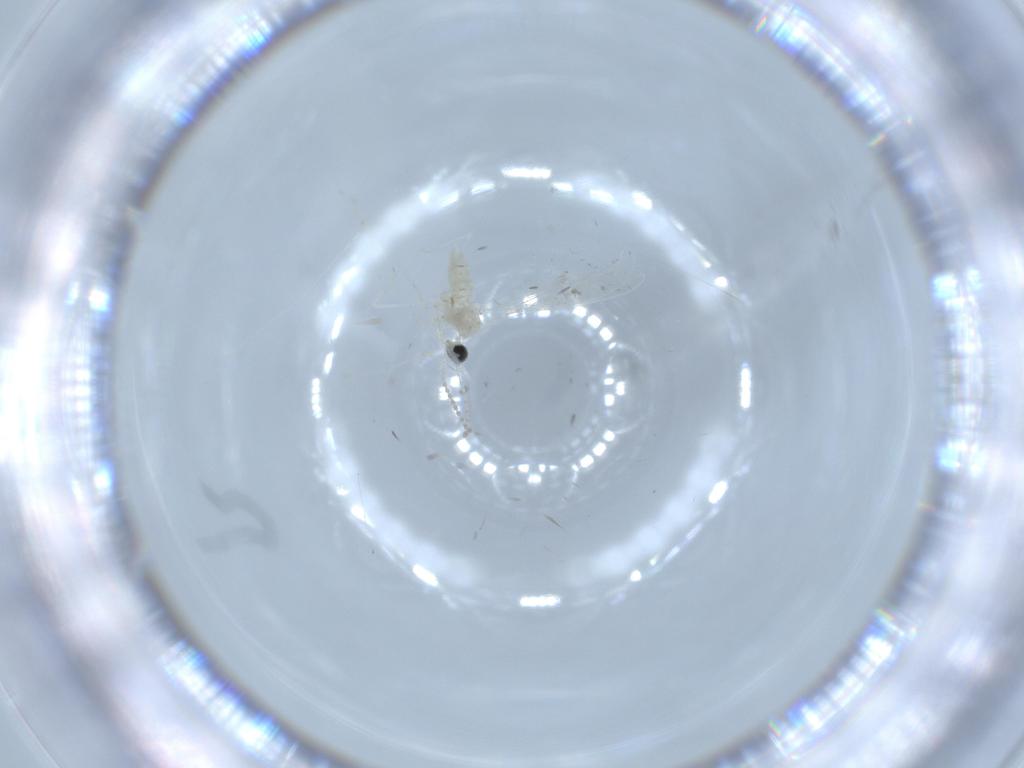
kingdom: Animalia
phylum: Arthropoda
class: Insecta
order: Diptera
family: Cecidomyiidae
